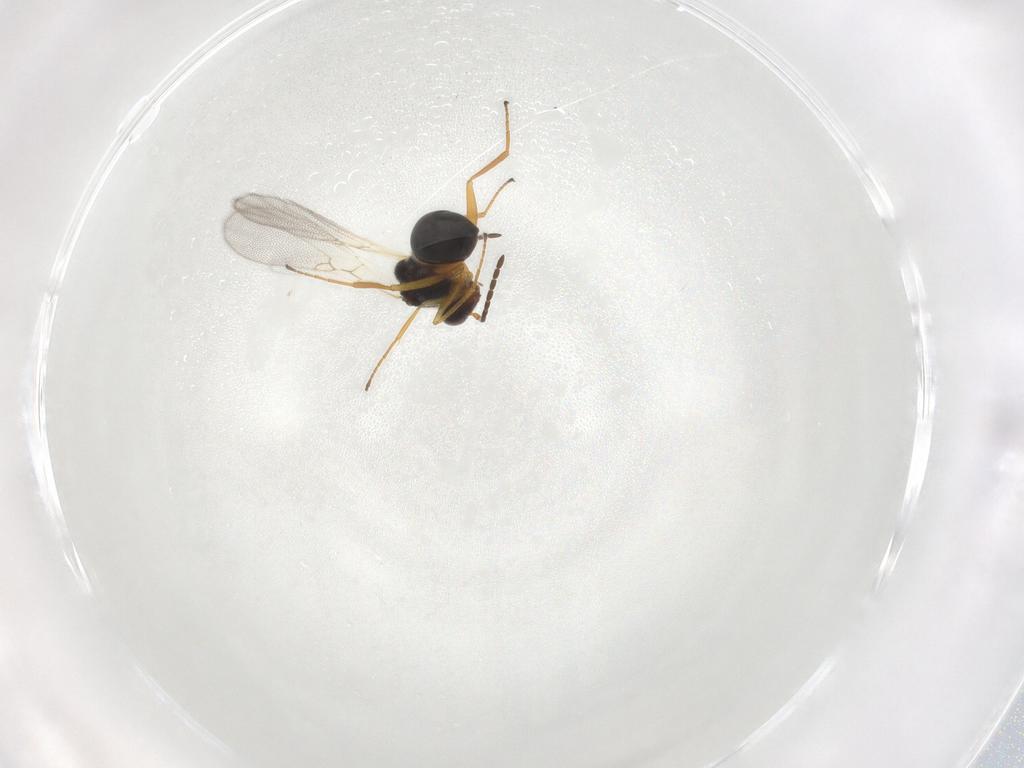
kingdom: Animalia
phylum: Arthropoda
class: Insecta
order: Hymenoptera
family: Figitidae
